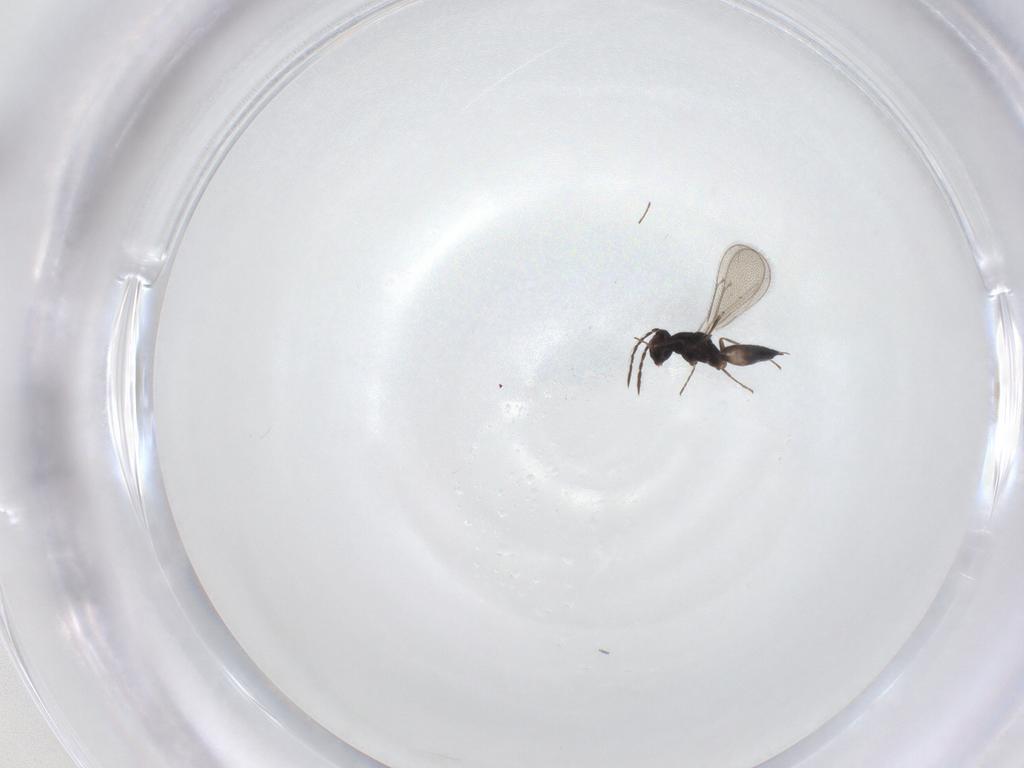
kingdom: Animalia
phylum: Arthropoda
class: Insecta
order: Hymenoptera
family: Eulophidae
